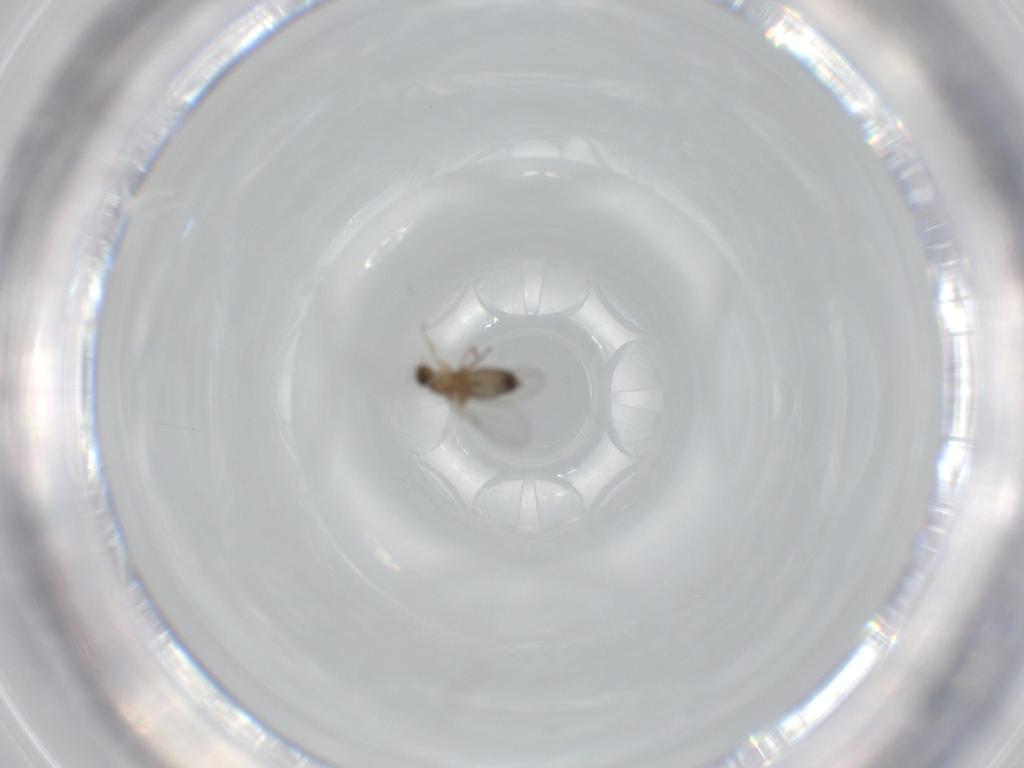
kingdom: Animalia
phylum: Arthropoda
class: Insecta
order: Diptera
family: Phoridae
